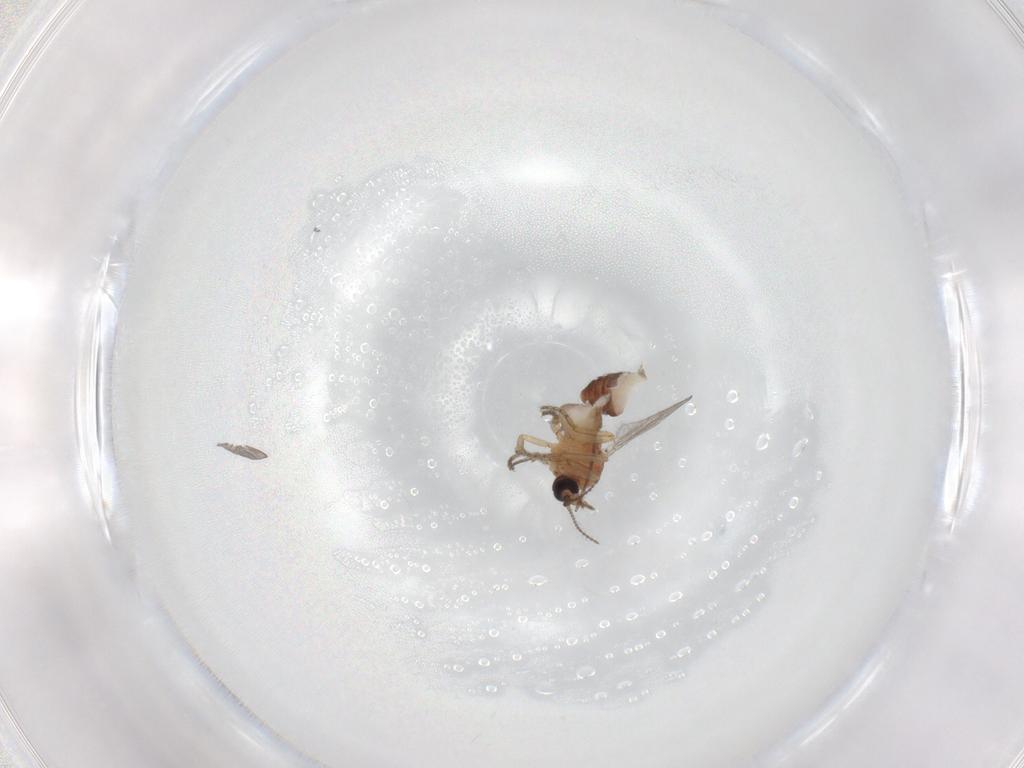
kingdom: Animalia
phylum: Arthropoda
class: Insecta
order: Diptera
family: Ceratopogonidae
